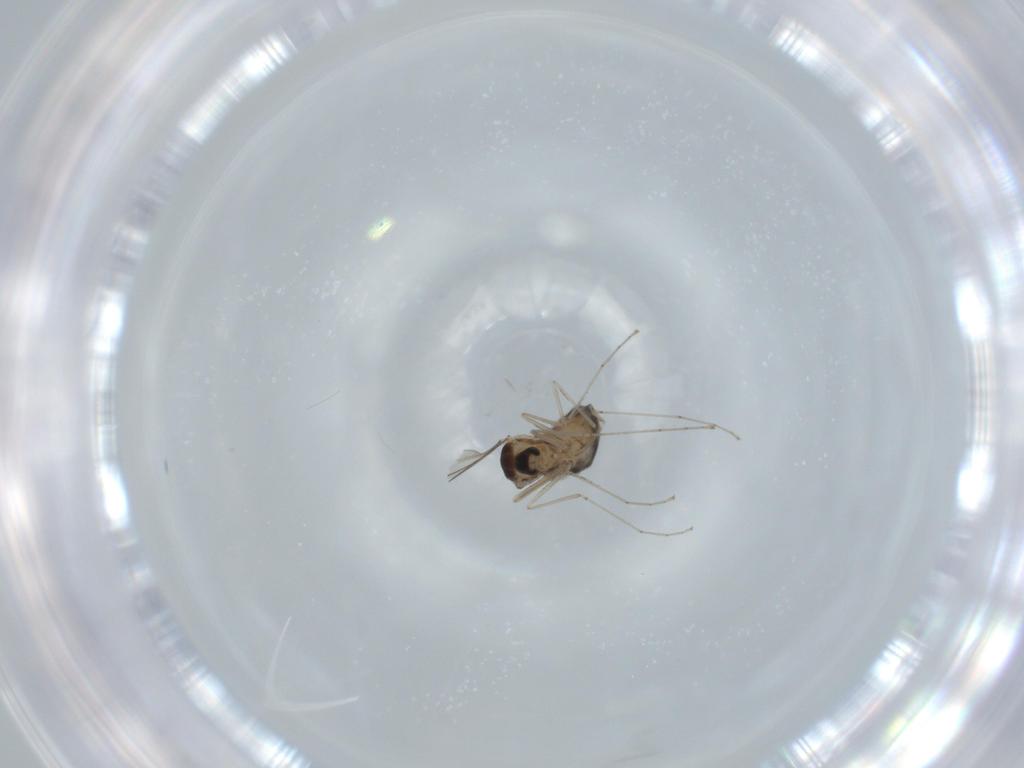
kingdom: Animalia
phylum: Arthropoda
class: Insecta
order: Diptera
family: Cecidomyiidae
